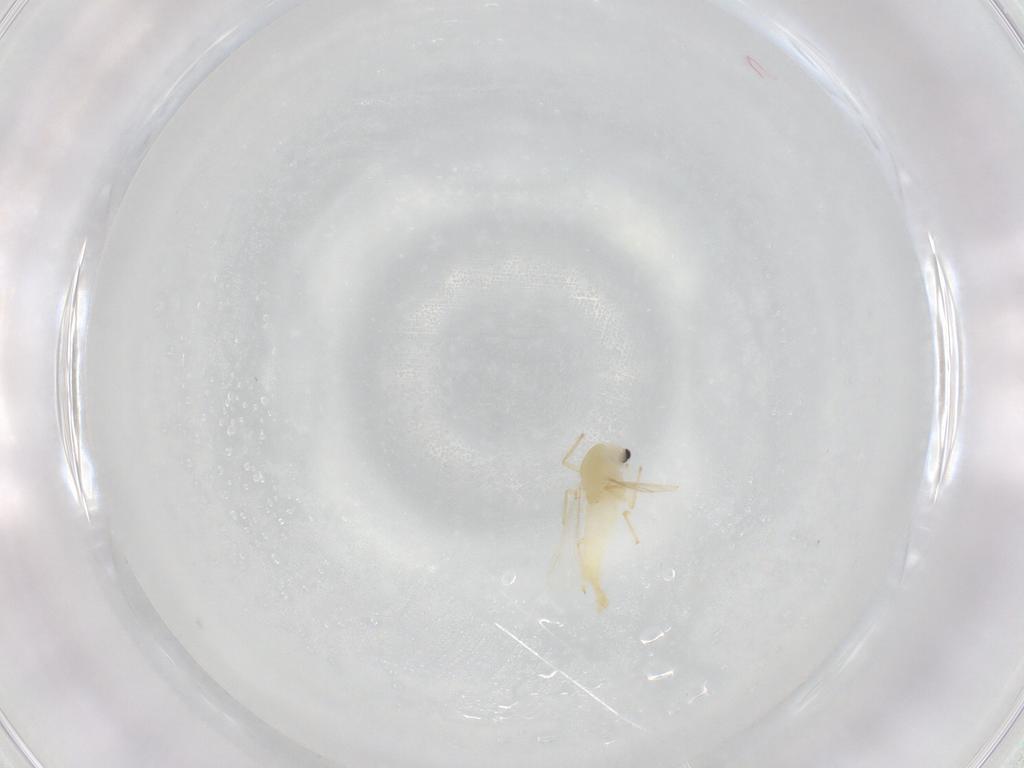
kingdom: Animalia
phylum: Arthropoda
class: Insecta
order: Diptera
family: Chironomidae
